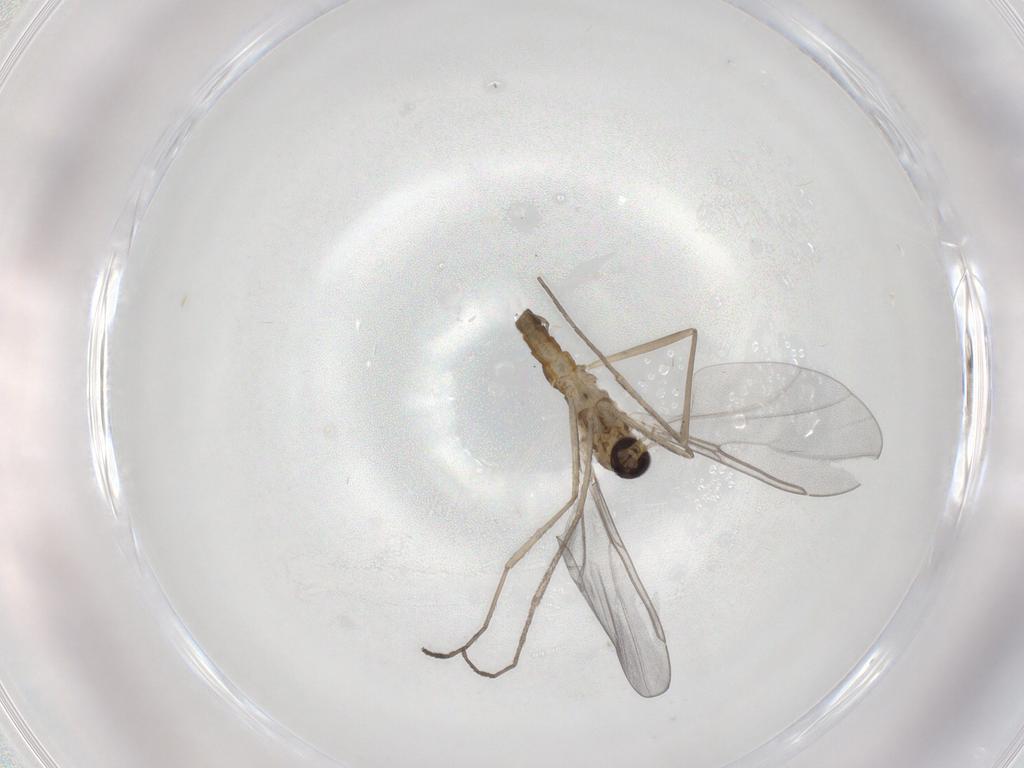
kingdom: Animalia
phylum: Arthropoda
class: Insecta
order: Diptera
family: Cecidomyiidae
